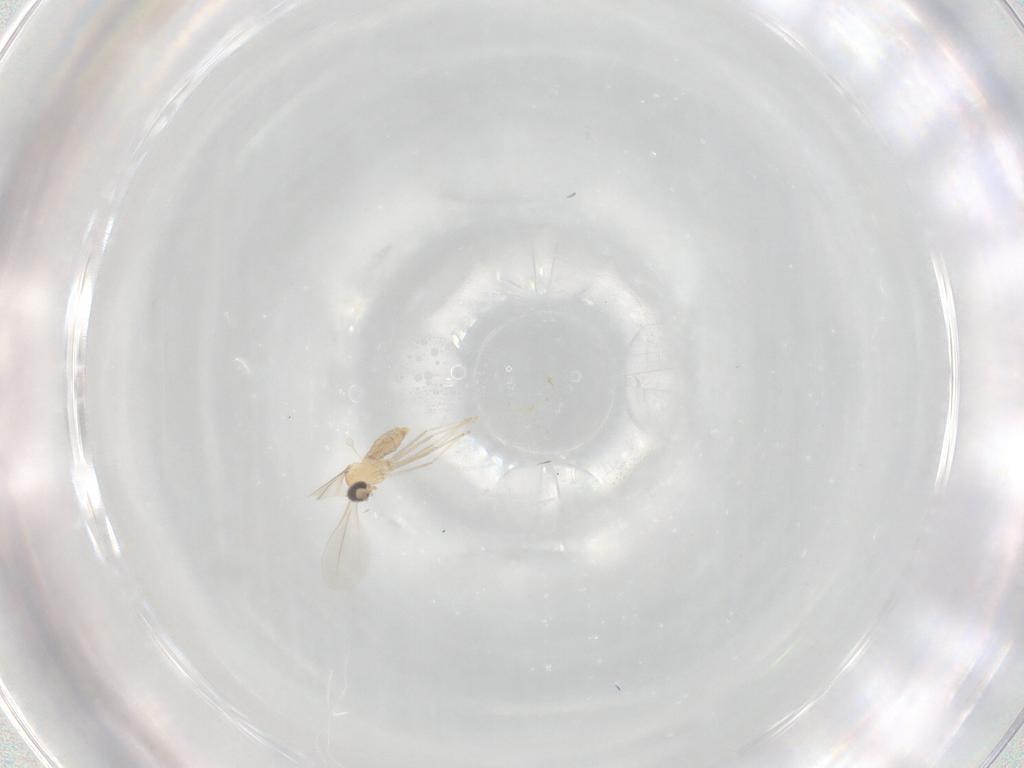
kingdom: Animalia
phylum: Arthropoda
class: Insecta
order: Diptera
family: Cecidomyiidae
